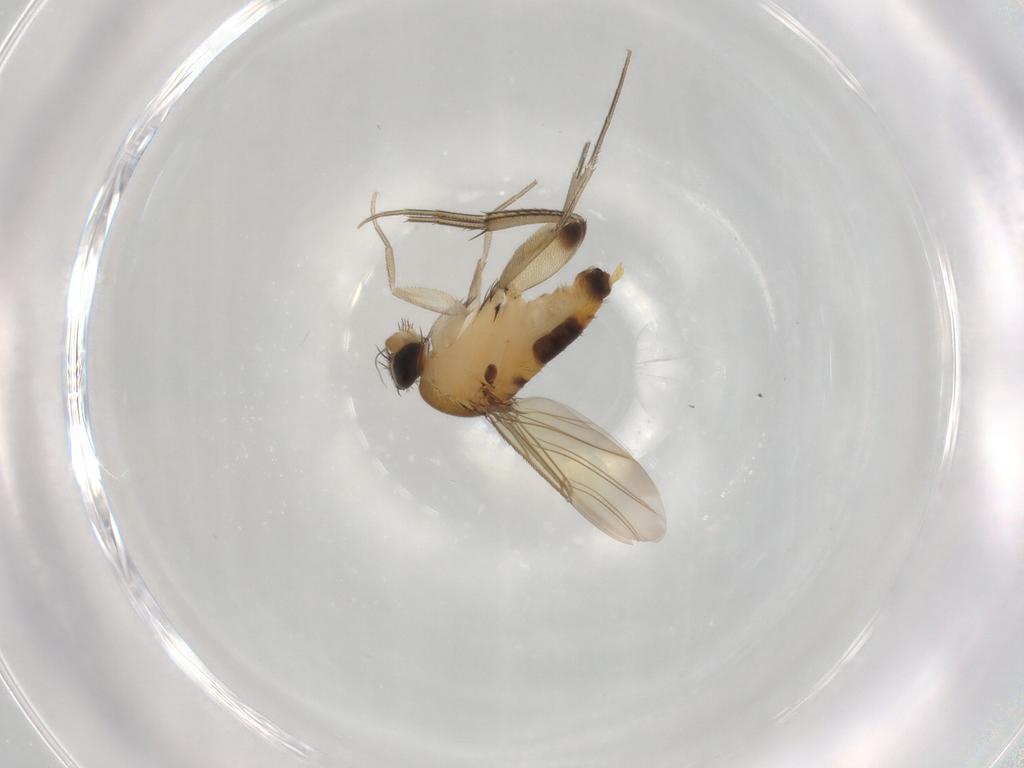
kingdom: Animalia
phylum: Arthropoda
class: Insecta
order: Diptera
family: Phoridae
